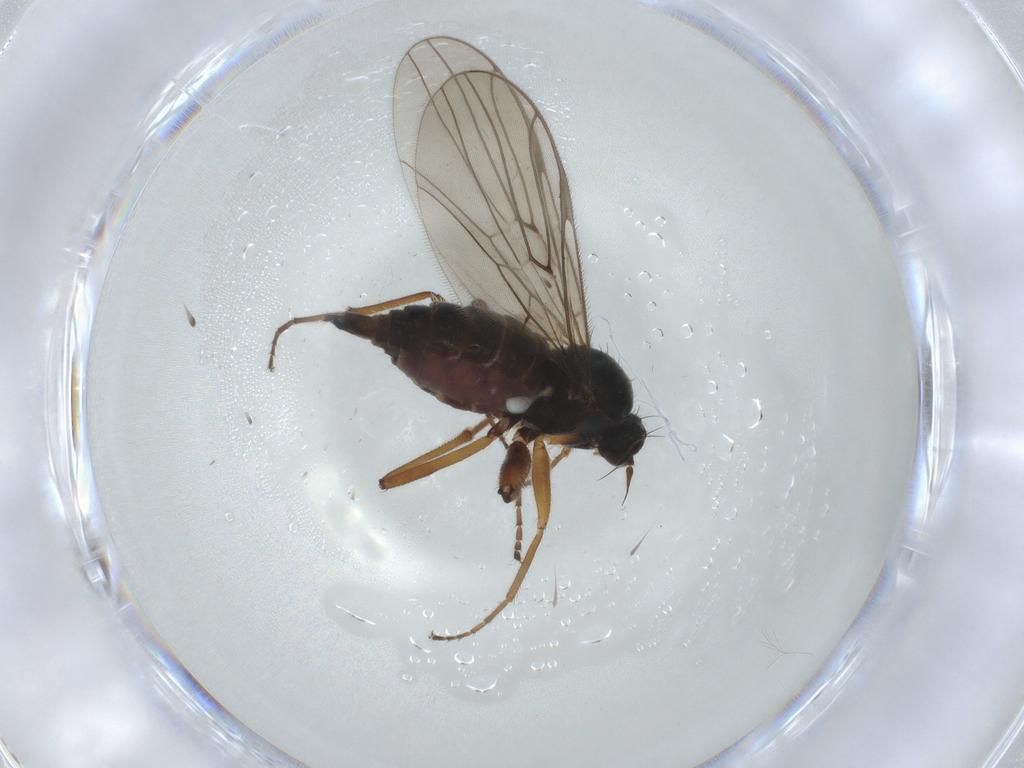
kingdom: Animalia
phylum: Arthropoda
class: Insecta
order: Diptera
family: Hybotidae
